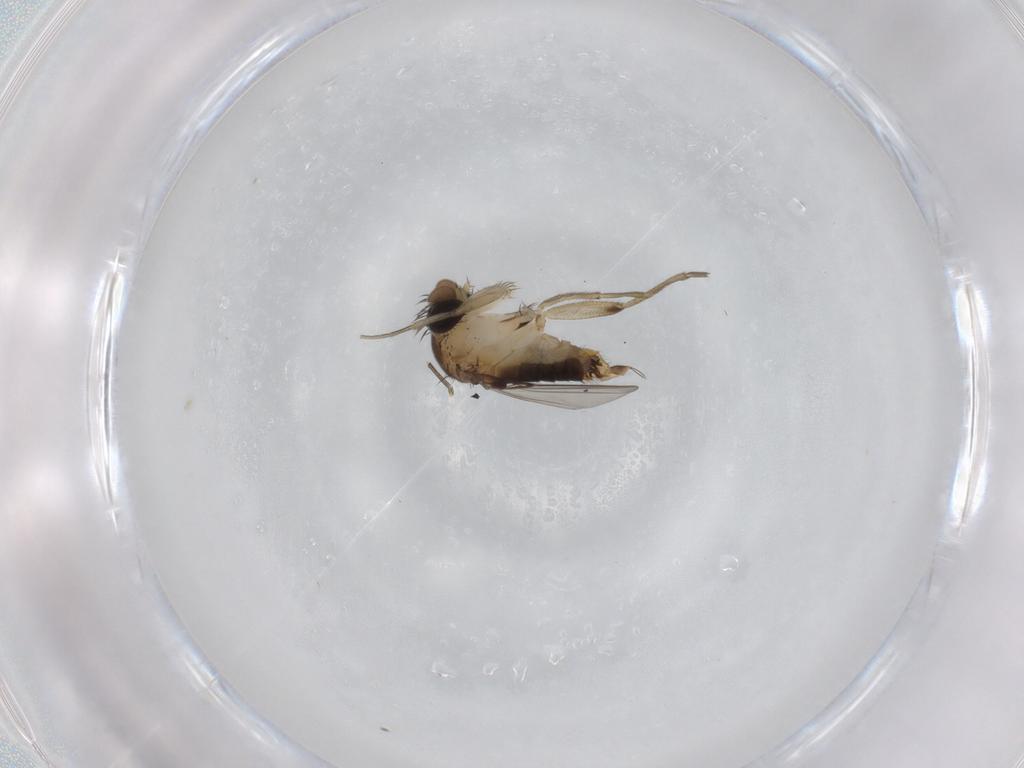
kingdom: Animalia
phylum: Arthropoda
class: Insecta
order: Diptera
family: Phoridae
